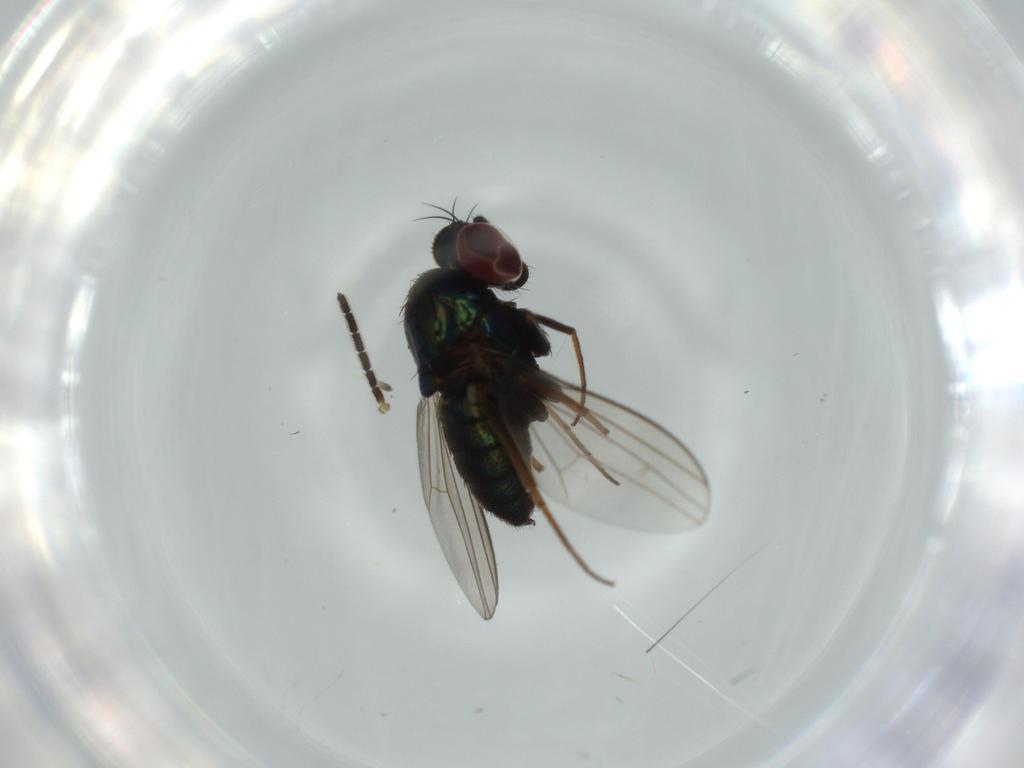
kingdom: Animalia
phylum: Arthropoda
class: Insecta
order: Diptera
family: Dolichopodidae
